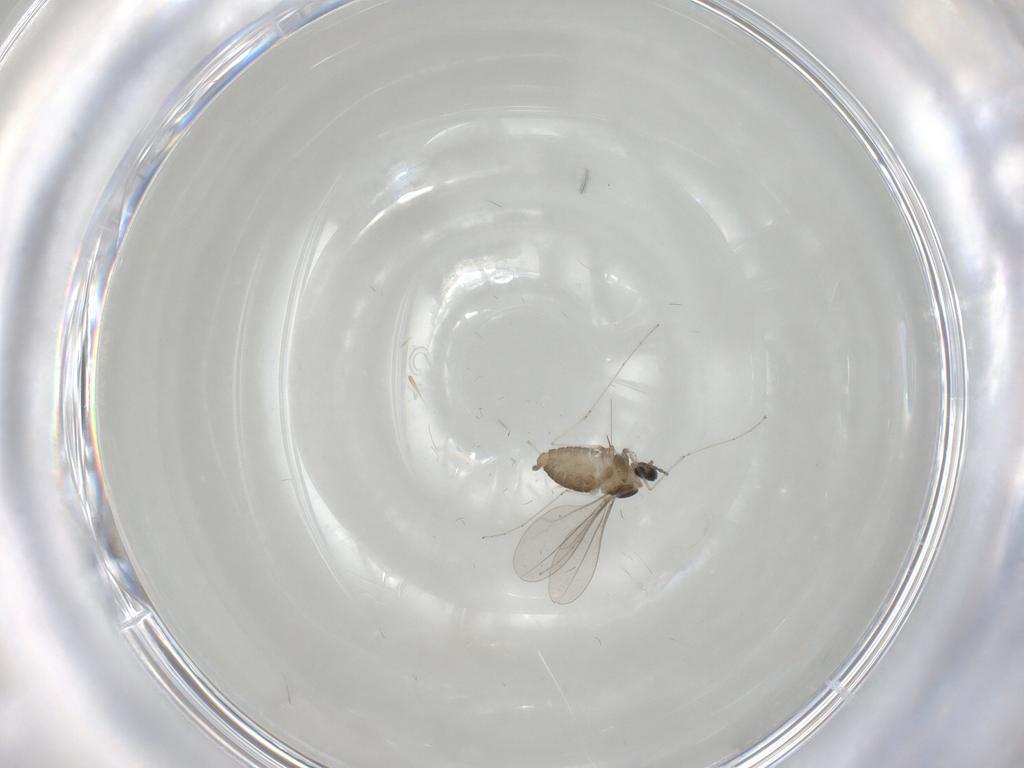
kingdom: Animalia
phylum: Arthropoda
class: Insecta
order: Diptera
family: Cecidomyiidae
